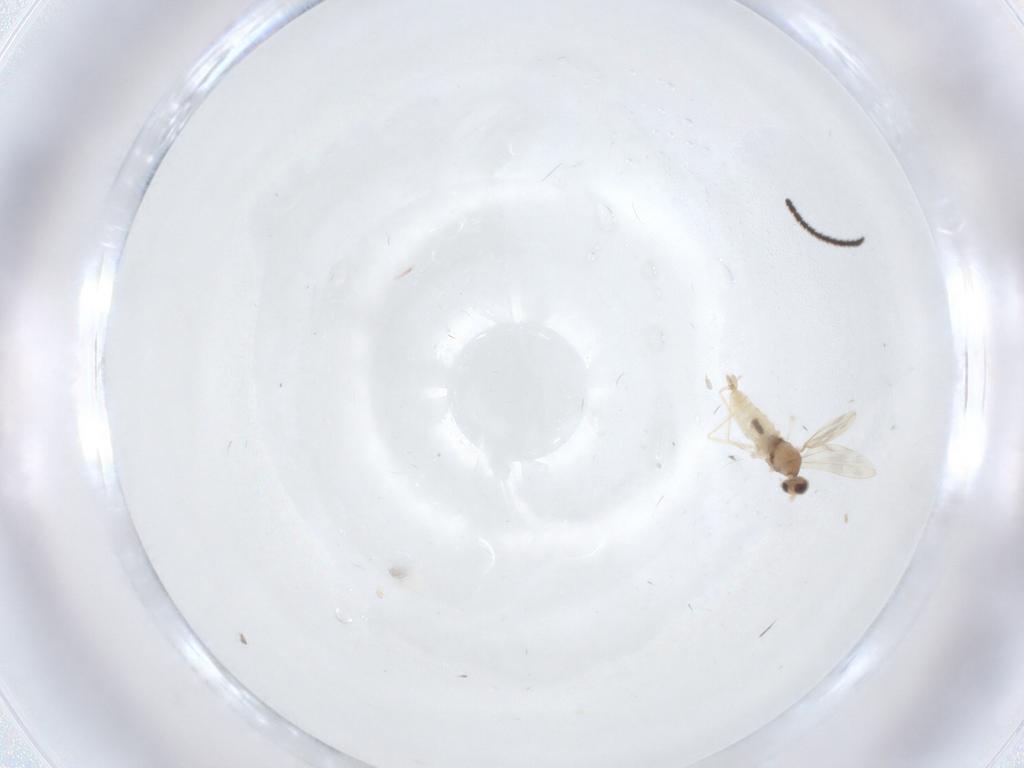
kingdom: Animalia
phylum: Arthropoda
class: Insecta
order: Diptera
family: Sciaridae
